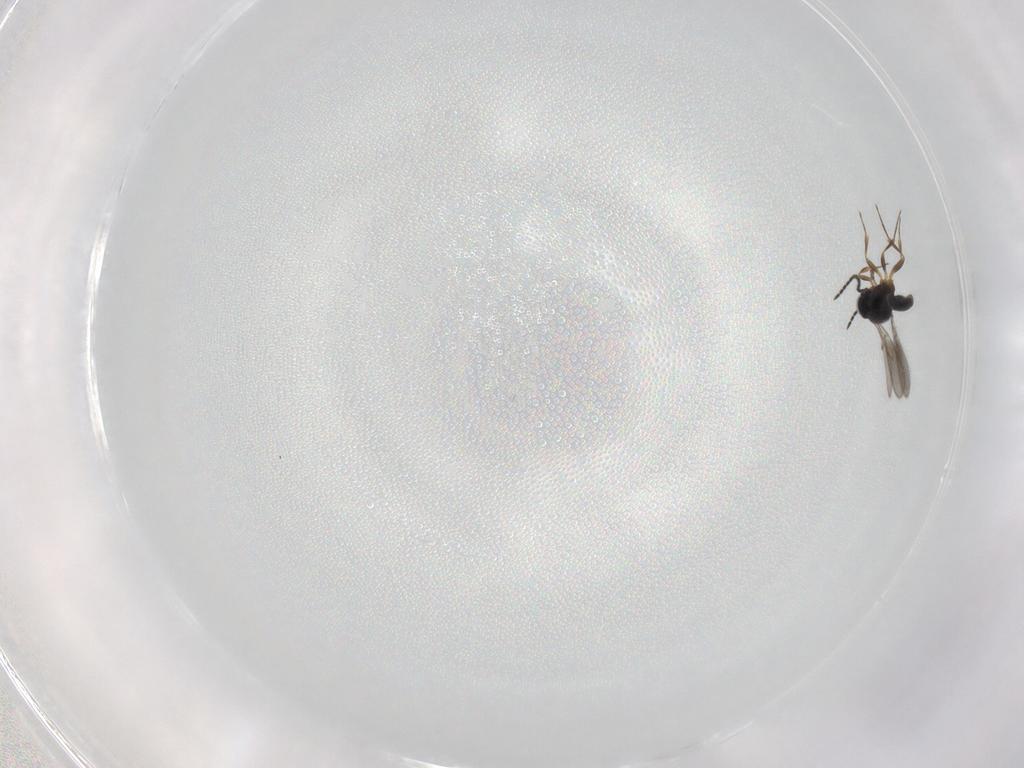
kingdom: Animalia
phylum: Arthropoda
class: Insecta
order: Hymenoptera
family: Scelionidae
